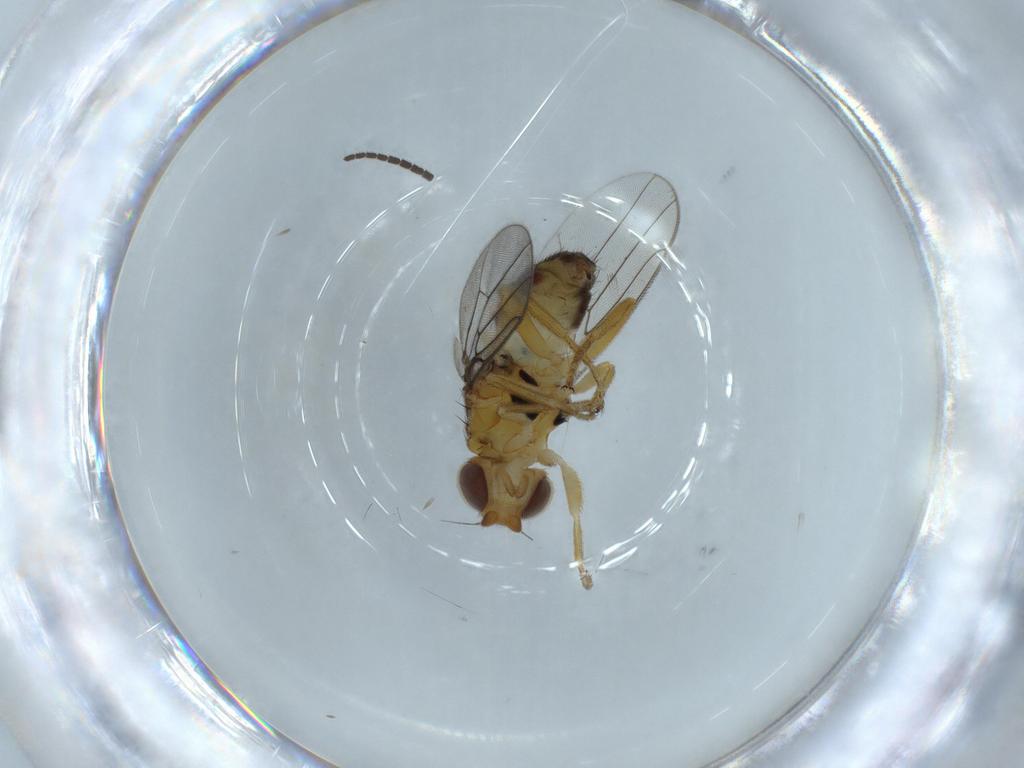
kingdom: Animalia
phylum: Arthropoda
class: Insecta
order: Diptera
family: Chloropidae
